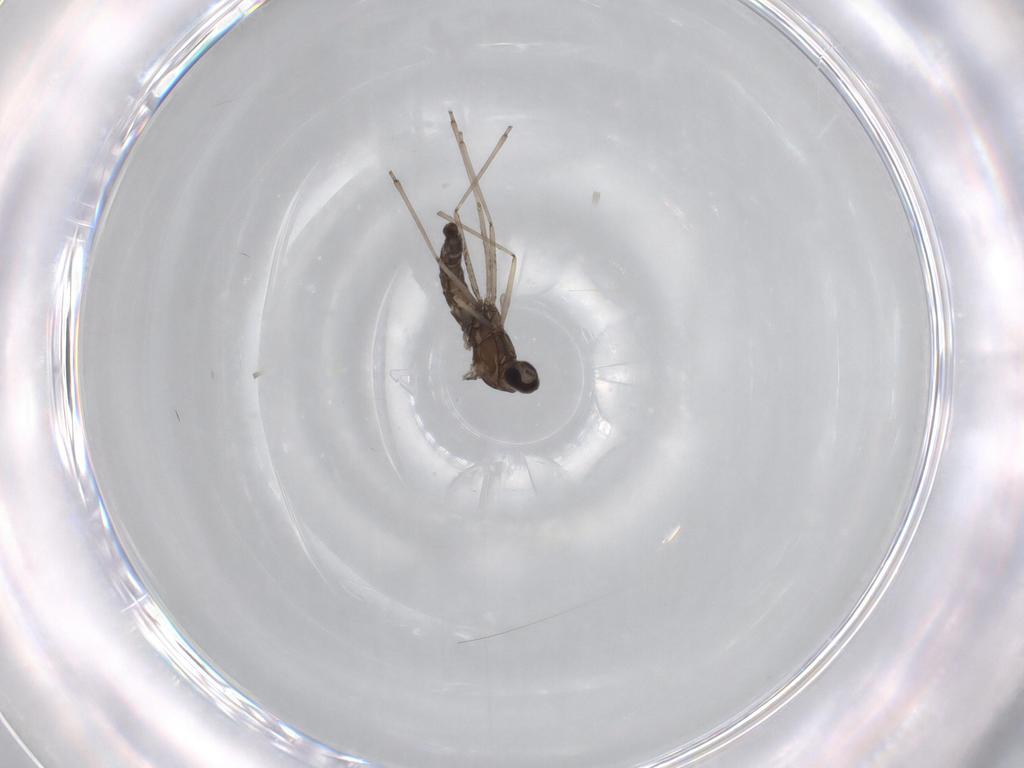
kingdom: Animalia
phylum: Arthropoda
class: Insecta
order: Diptera
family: Cecidomyiidae
